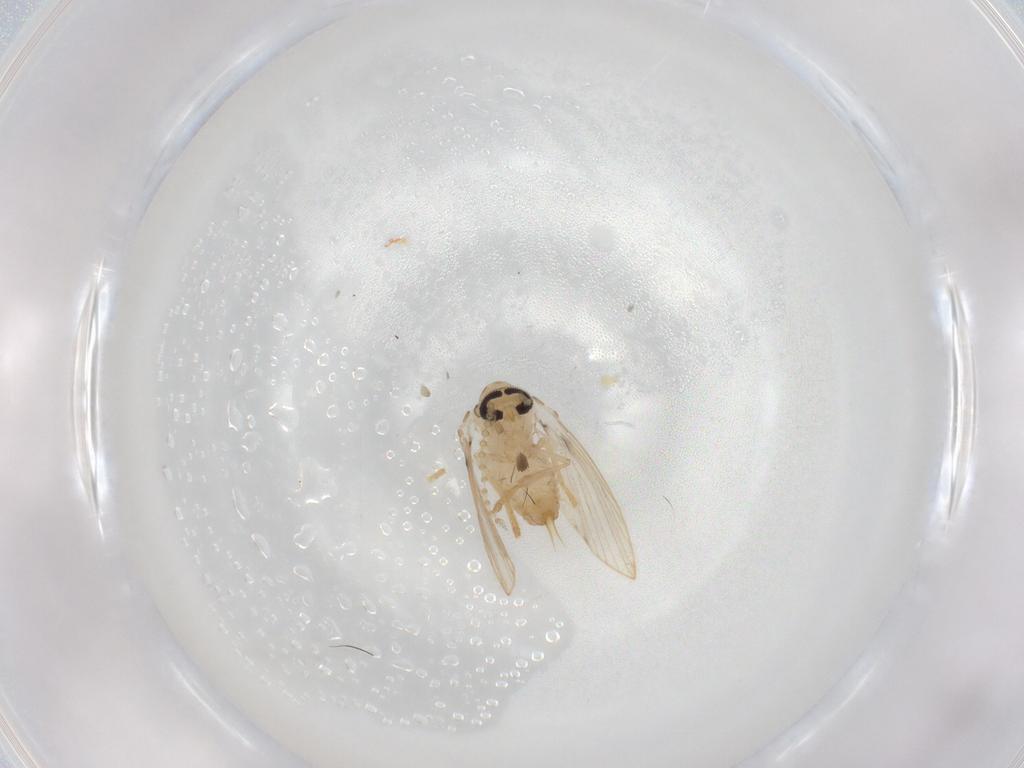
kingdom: Animalia
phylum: Arthropoda
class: Insecta
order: Diptera
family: Psychodidae
